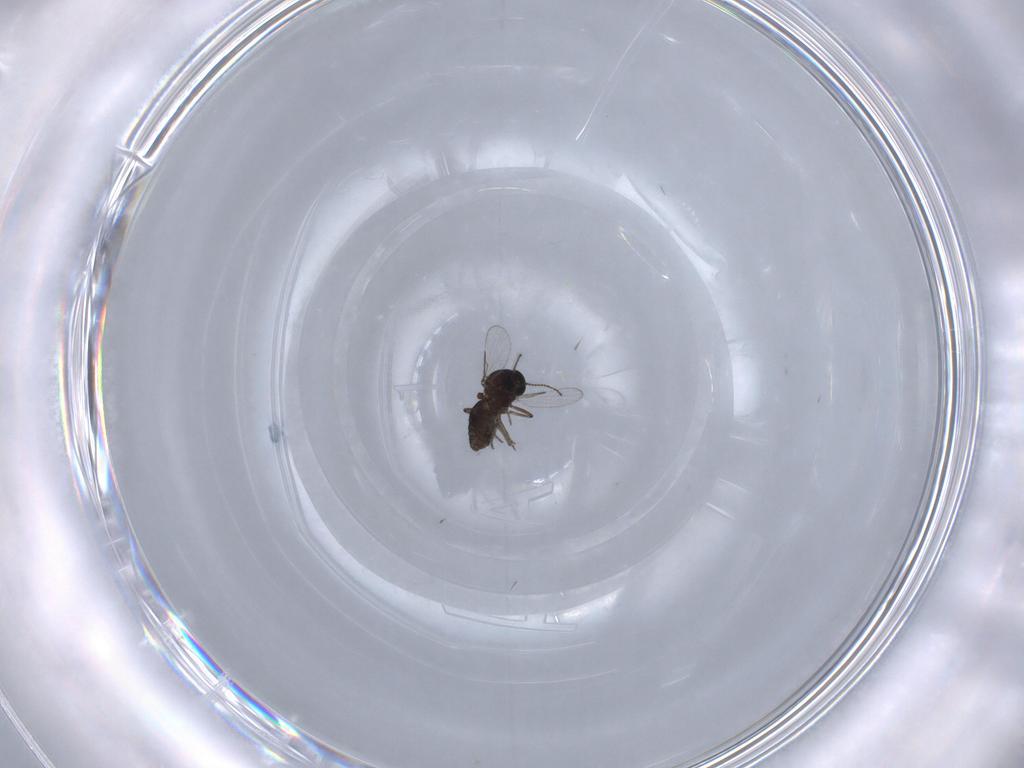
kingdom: Animalia
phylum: Arthropoda
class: Insecta
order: Diptera
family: Ceratopogonidae
